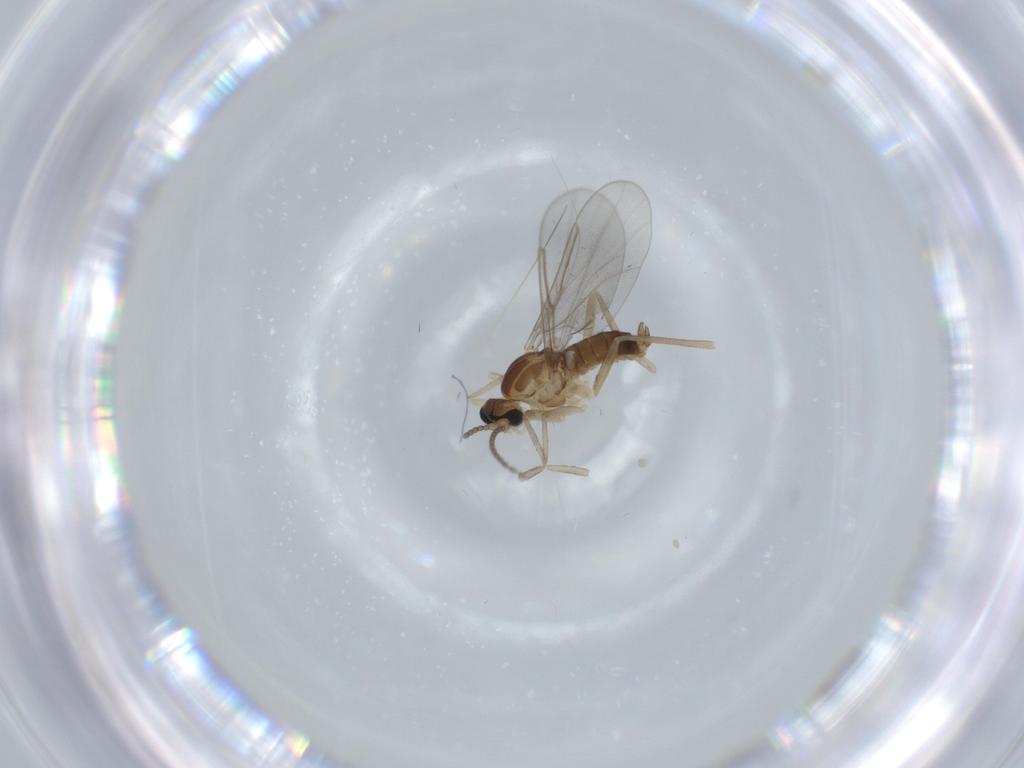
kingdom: Animalia
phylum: Arthropoda
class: Insecta
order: Diptera
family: Cecidomyiidae
